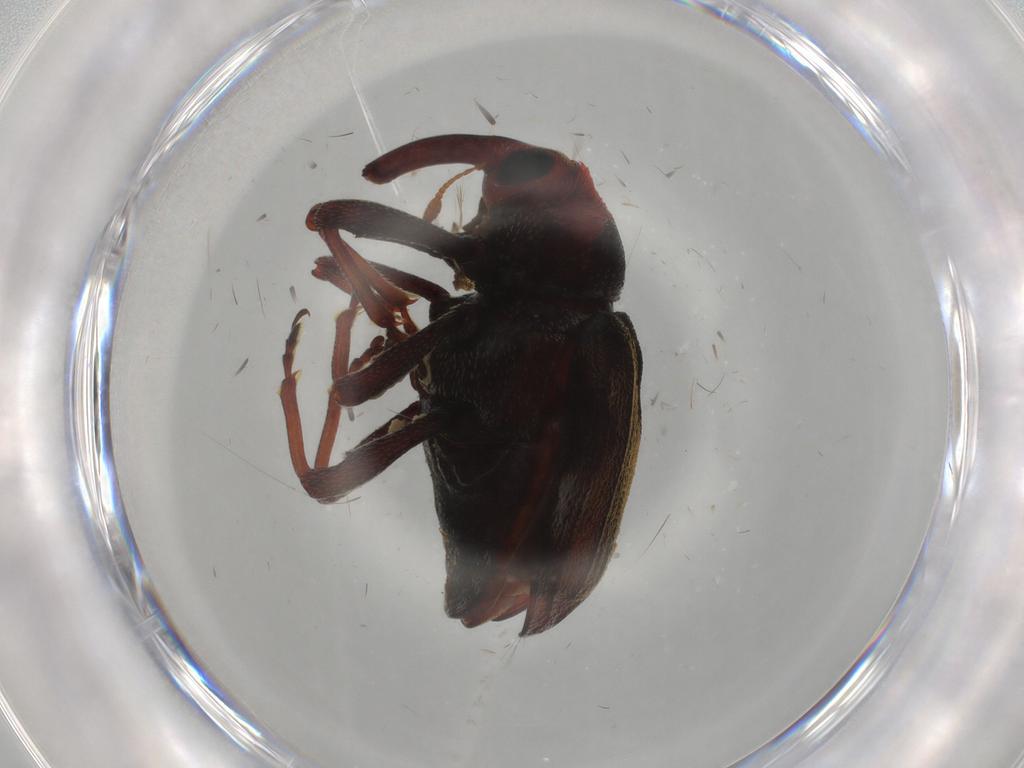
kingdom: Animalia
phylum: Arthropoda
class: Insecta
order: Coleoptera
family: Curculionidae
